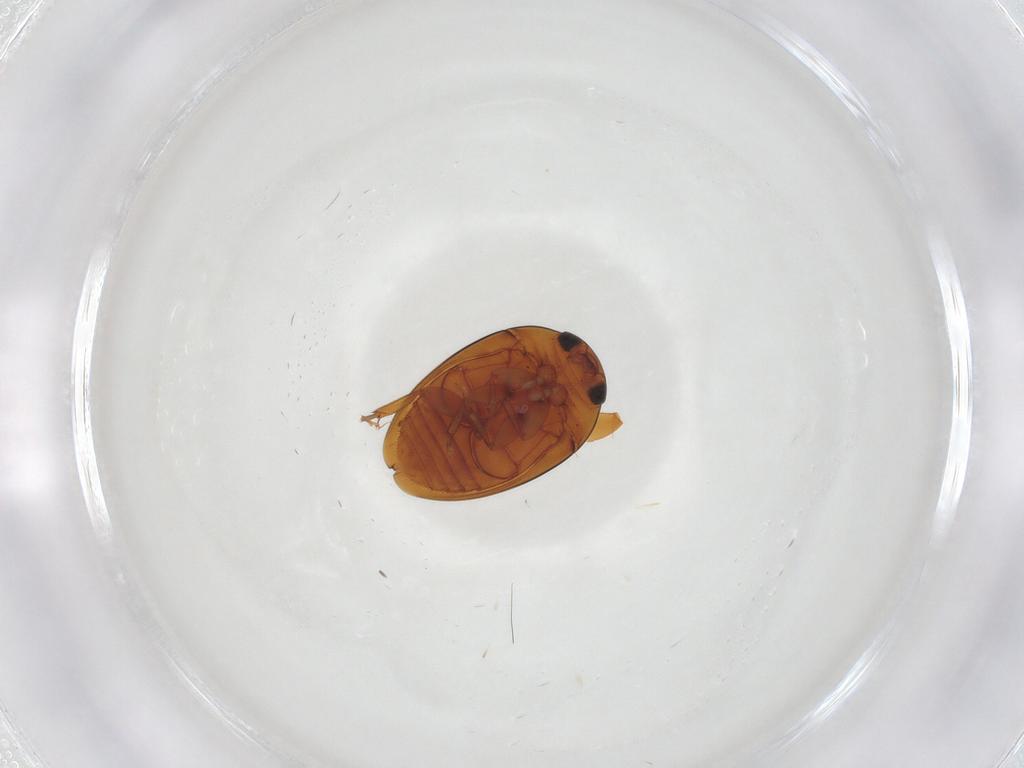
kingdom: Animalia
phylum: Arthropoda
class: Insecta
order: Coleoptera
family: Phalacridae
